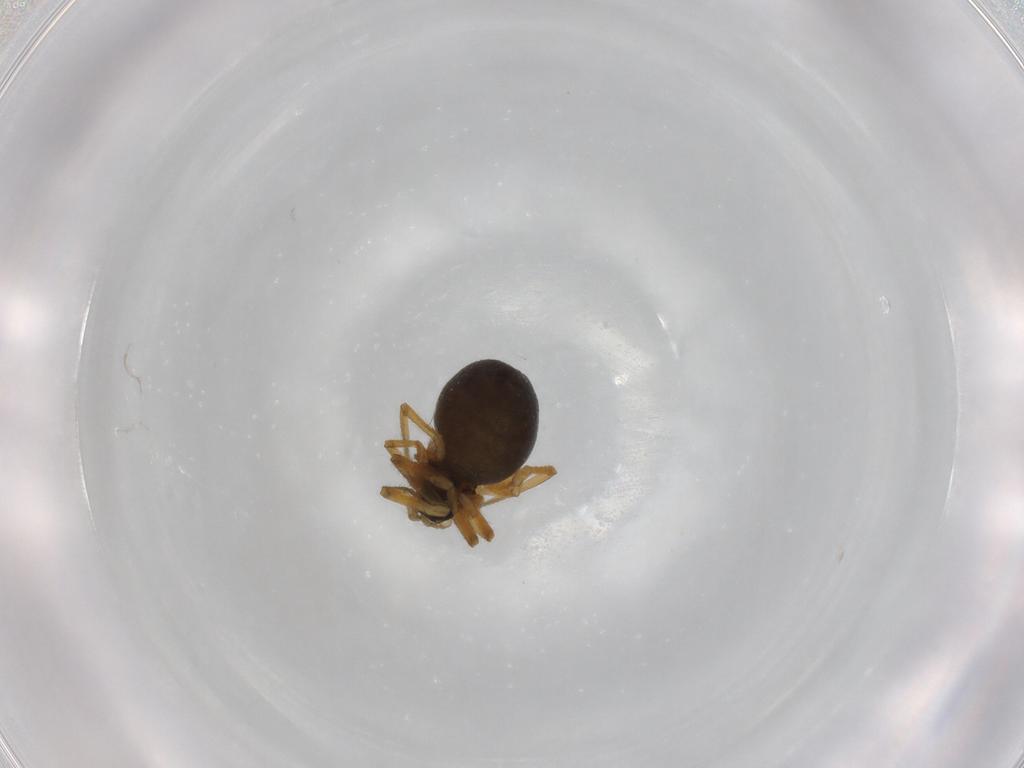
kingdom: Animalia
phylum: Arthropoda
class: Arachnida
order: Araneae
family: Linyphiidae
